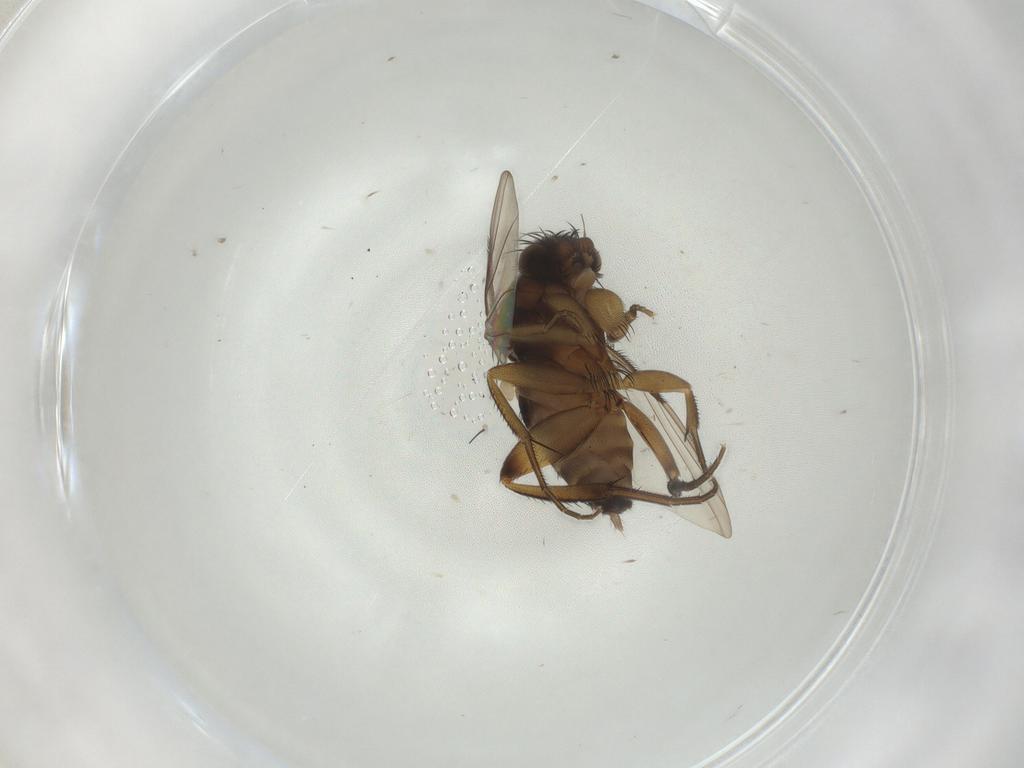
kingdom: Animalia
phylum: Arthropoda
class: Insecta
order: Diptera
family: Phoridae
